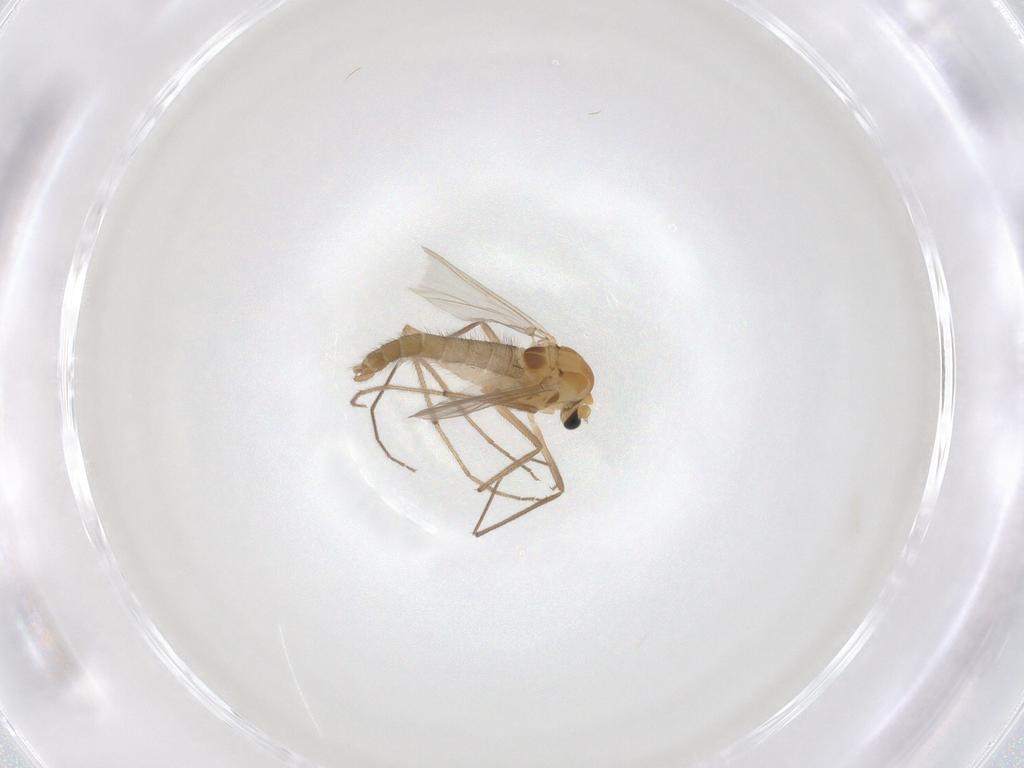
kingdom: Animalia
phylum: Arthropoda
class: Insecta
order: Diptera
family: Chironomidae
